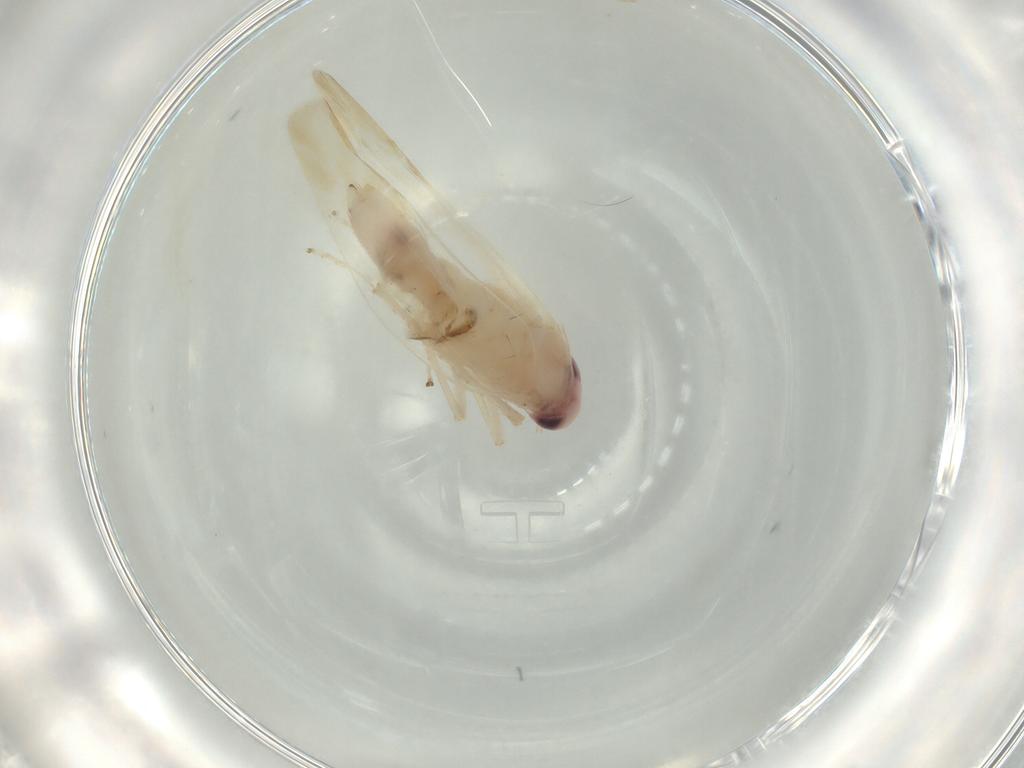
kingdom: Animalia
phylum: Arthropoda
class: Insecta
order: Hemiptera
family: Cicadellidae
